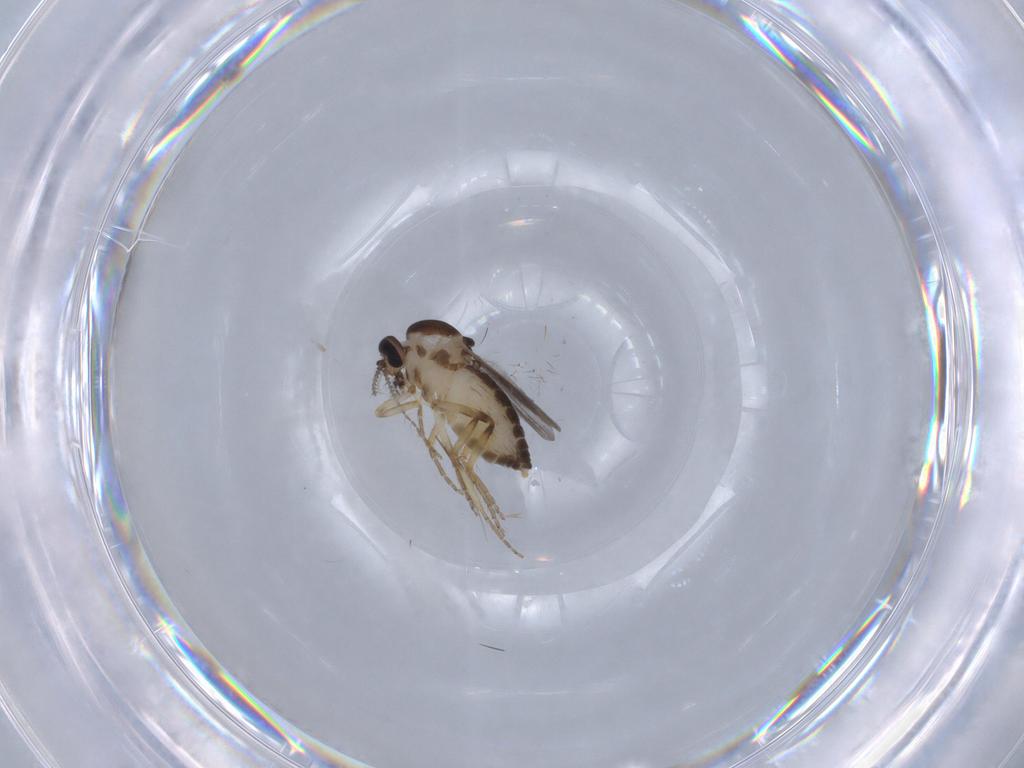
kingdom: Animalia
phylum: Arthropoda
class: Insecta
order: Diptera
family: Ceratopogonidae
